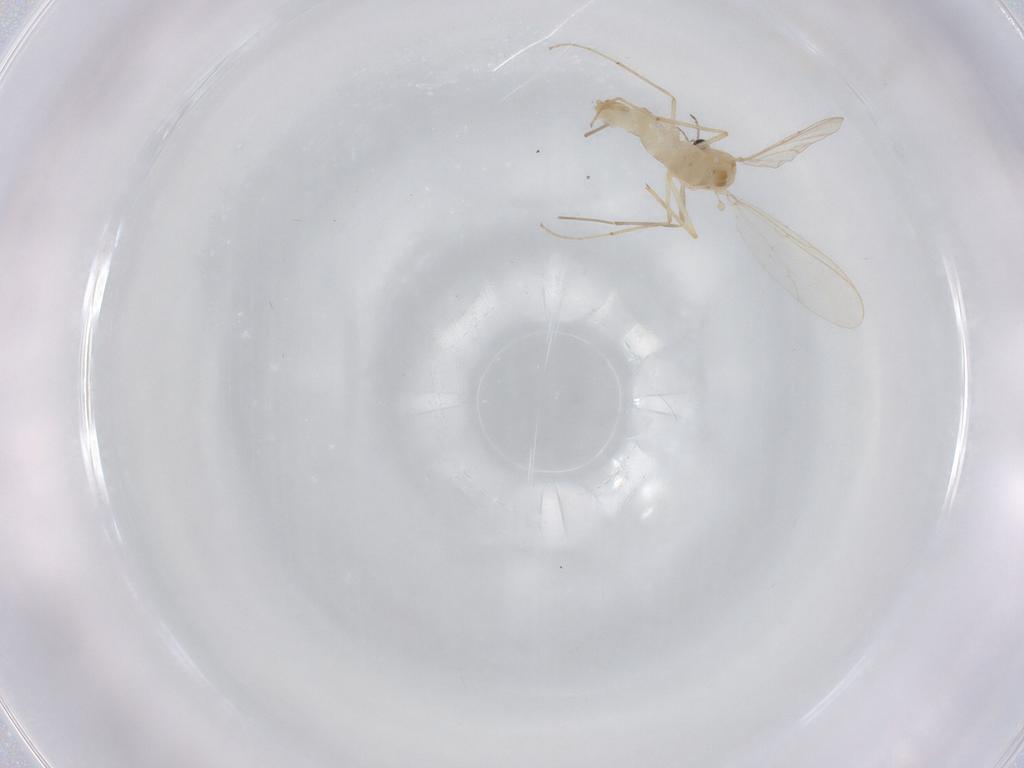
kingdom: Animalia
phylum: Arthropoda
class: Insecta
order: Diptera
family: Chironomidae
